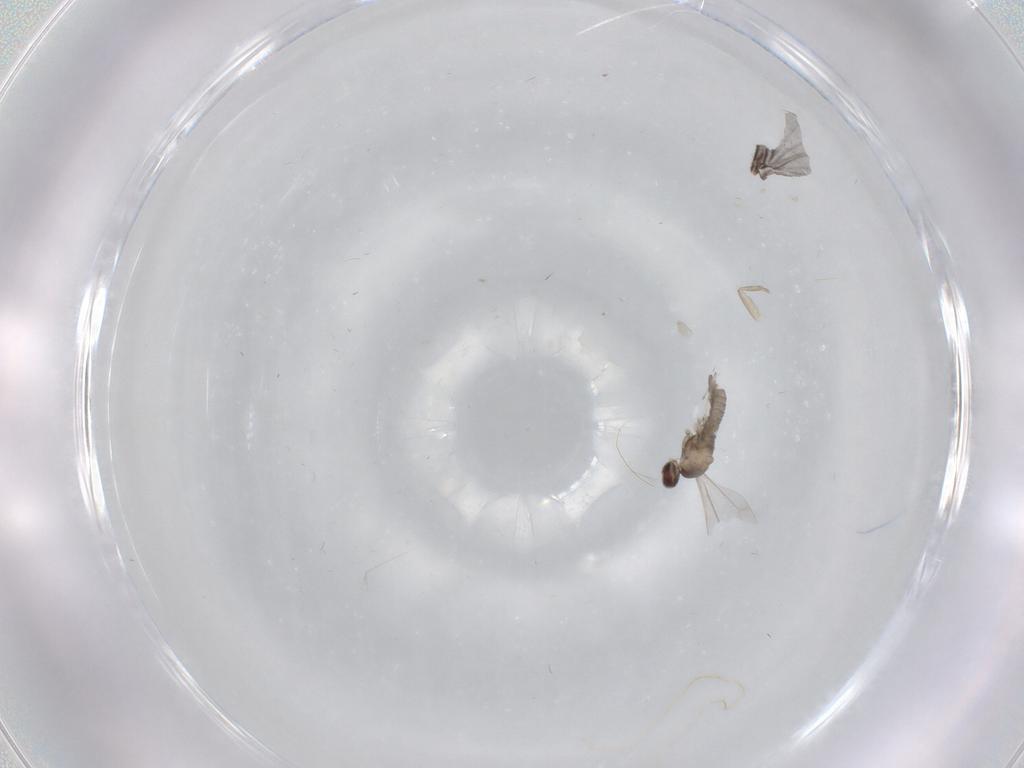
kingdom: Animalia
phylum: Arthropoda
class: Insecta
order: Diptera
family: Cecidomyiidae
